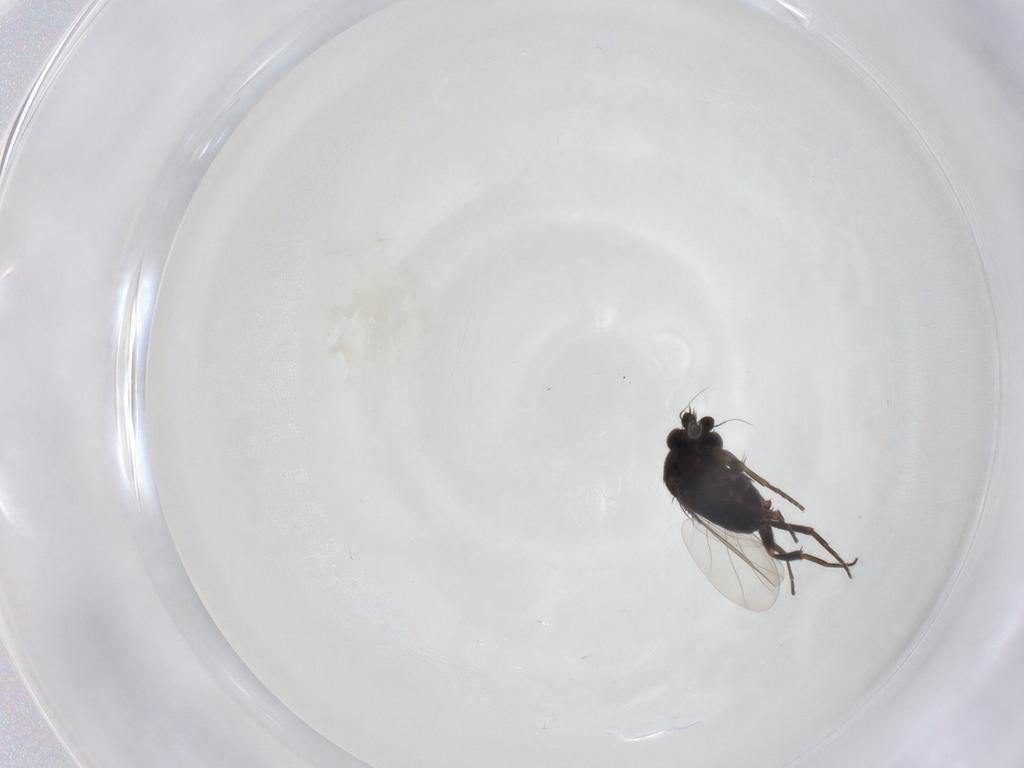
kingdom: Animalia
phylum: Arthropoda
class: Insecta
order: Diptera
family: Phoridae
